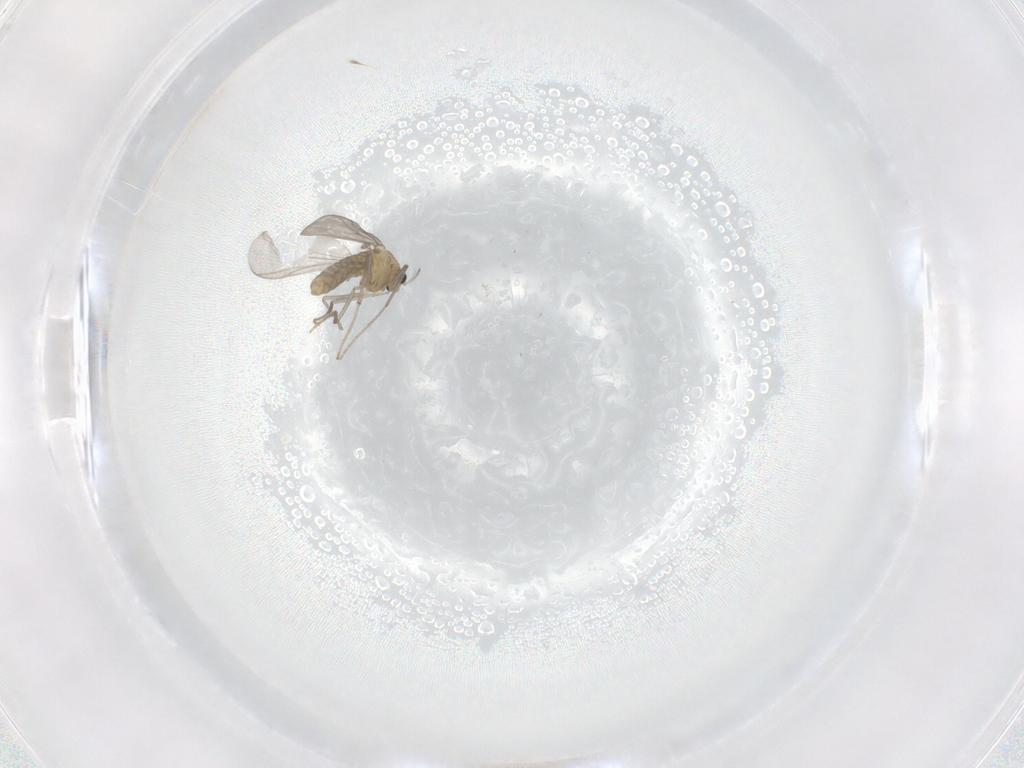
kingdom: Animalia
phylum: Arthropoda
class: Insecta
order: Diptera
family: Chironomidae
